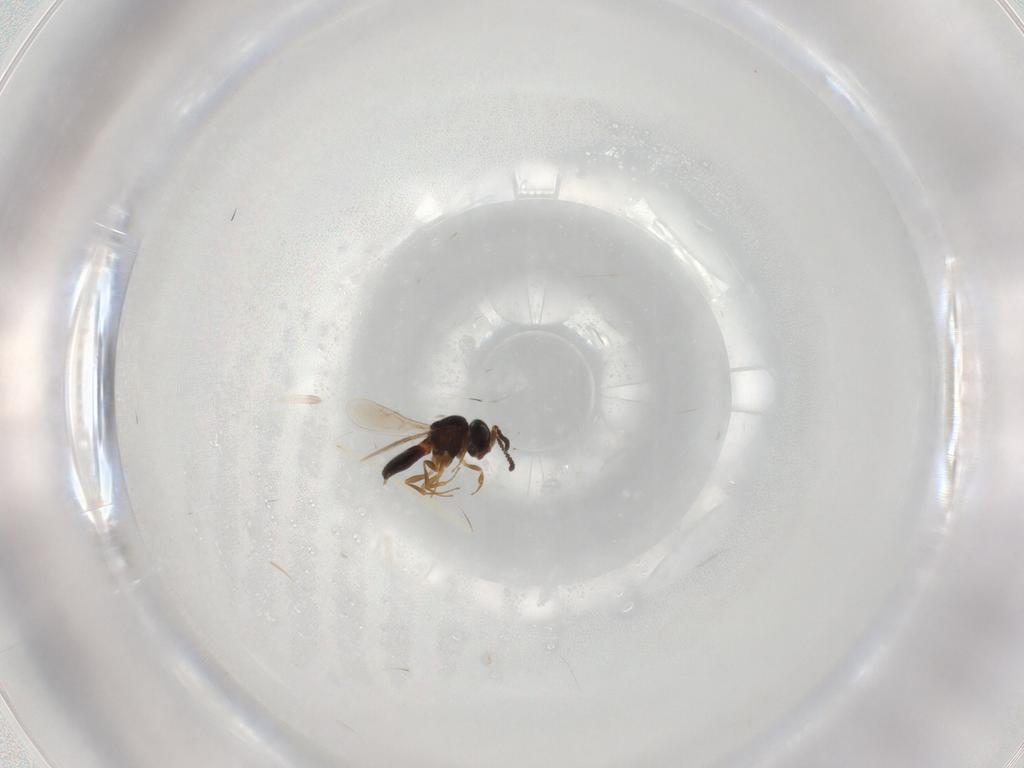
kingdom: Animalia
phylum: Arthropoda
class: Insecta
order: Hymenoptera
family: Scelionidae
